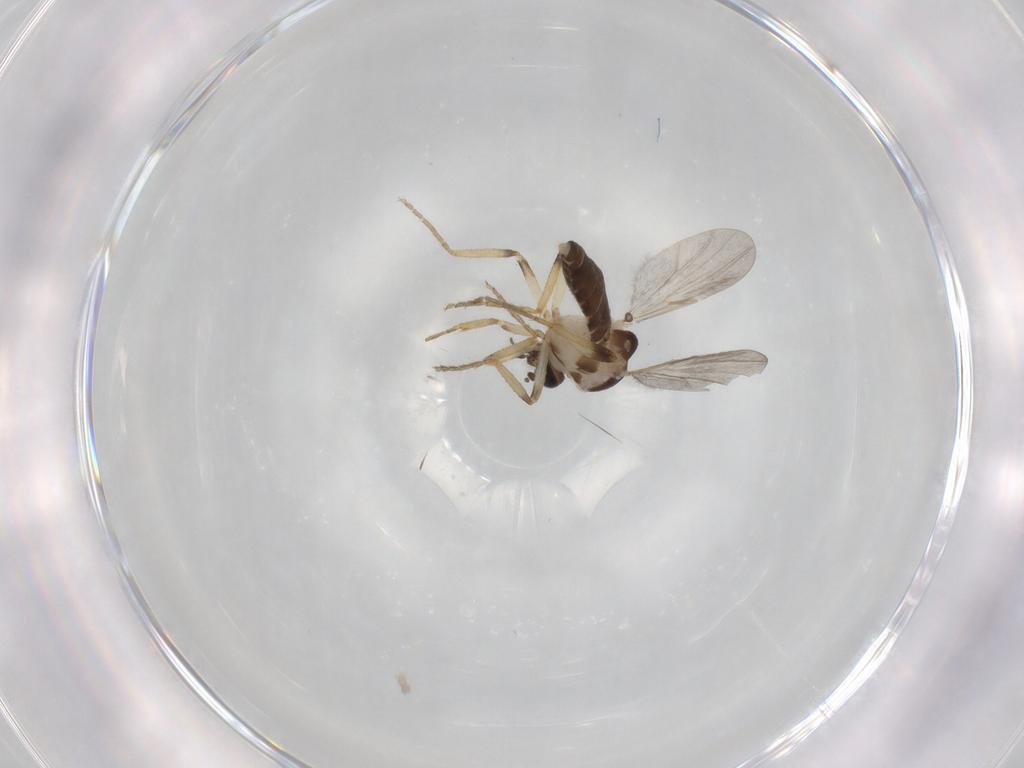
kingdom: Animalia
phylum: Arthropoda
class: Insecta
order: Diptera
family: Ceratopogonidae
